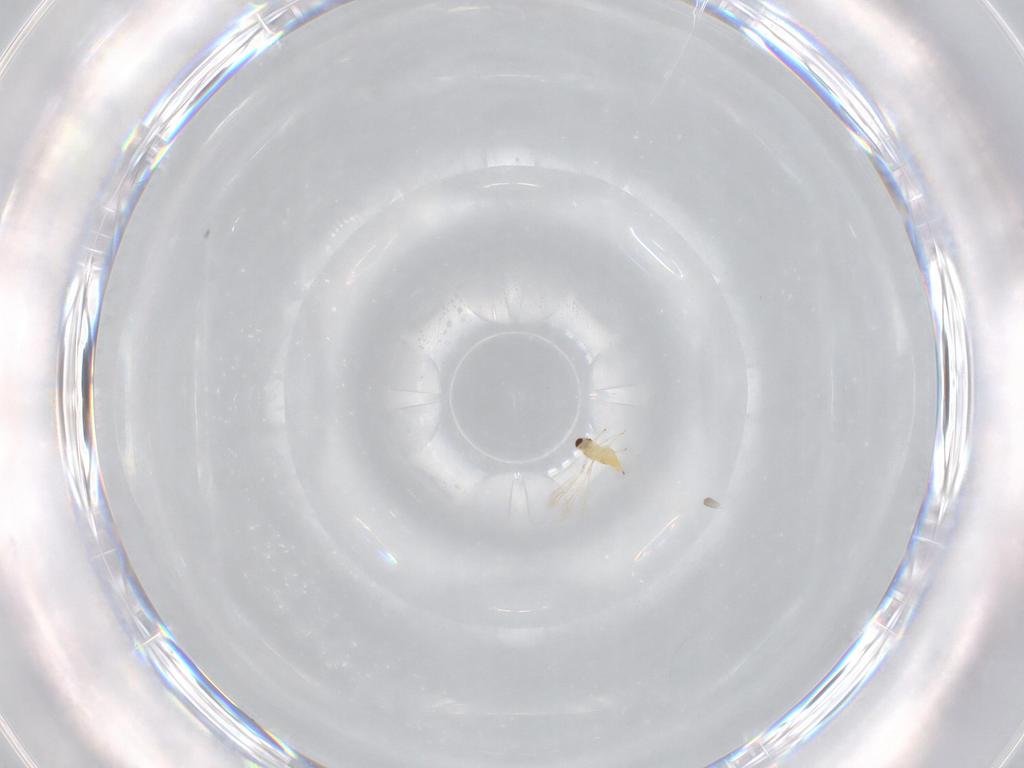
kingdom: Animalia
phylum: Arthropoda
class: Insecta
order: Hymenoptera
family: Mymaridae
